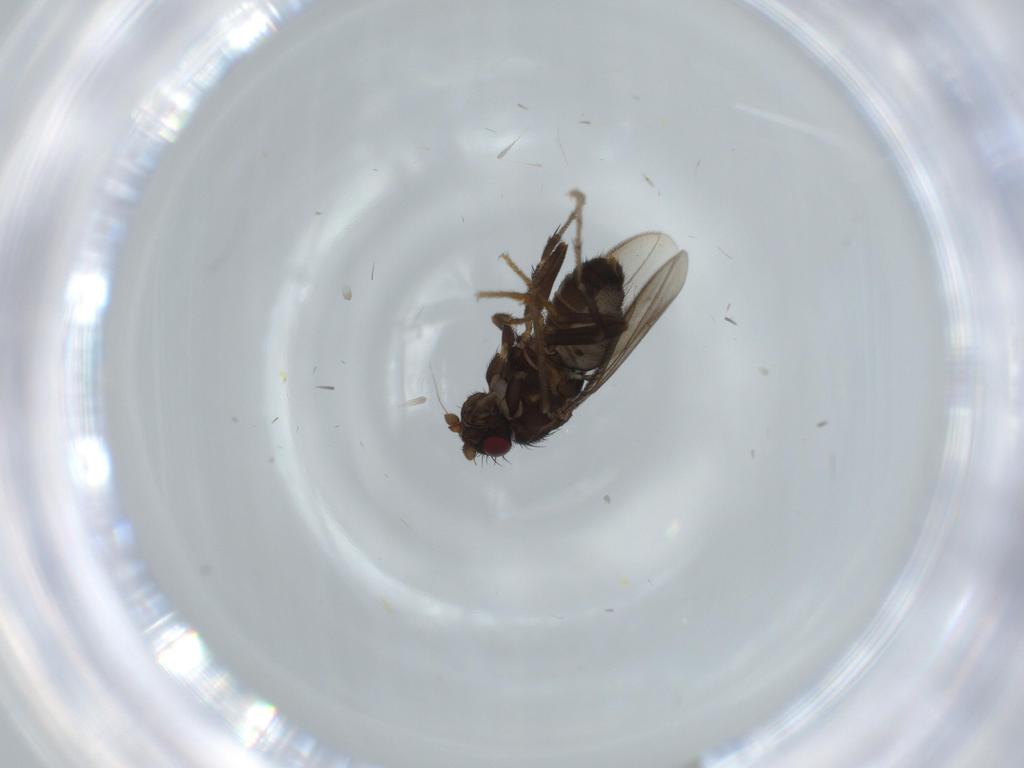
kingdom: Animalia
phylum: Arthropoda
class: Insecta
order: Diptera
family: Sphaeroceridae
